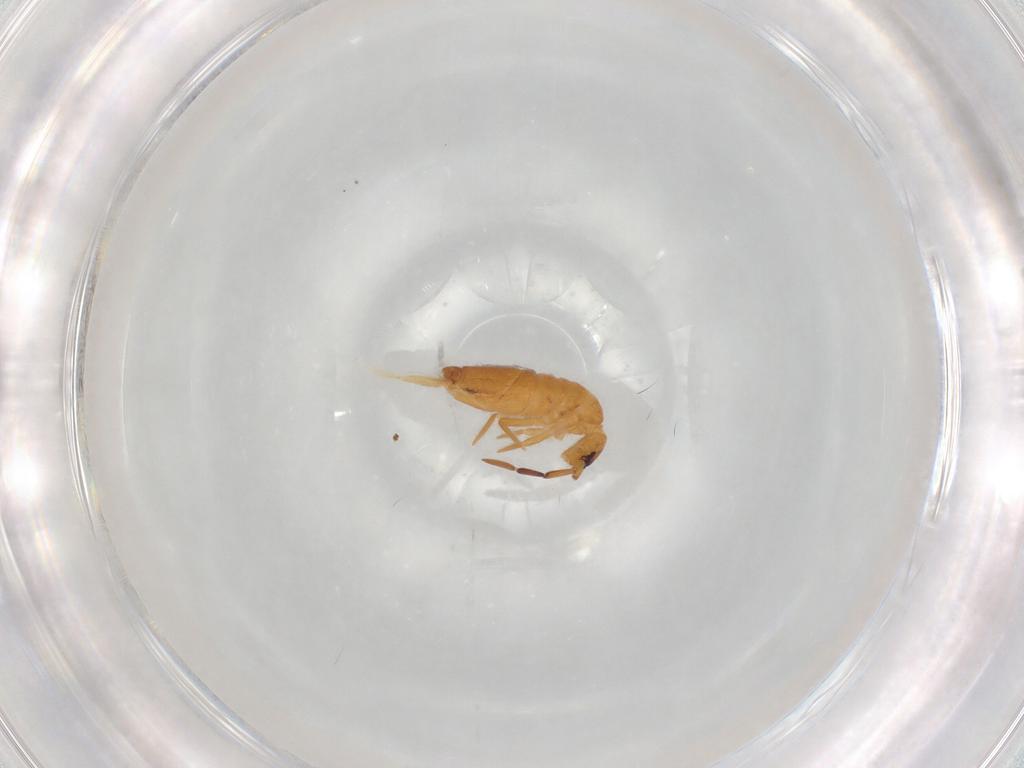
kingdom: Animalia
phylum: Arthropoda
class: Collembola
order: Entomobryomorpha
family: Entomobryidae
